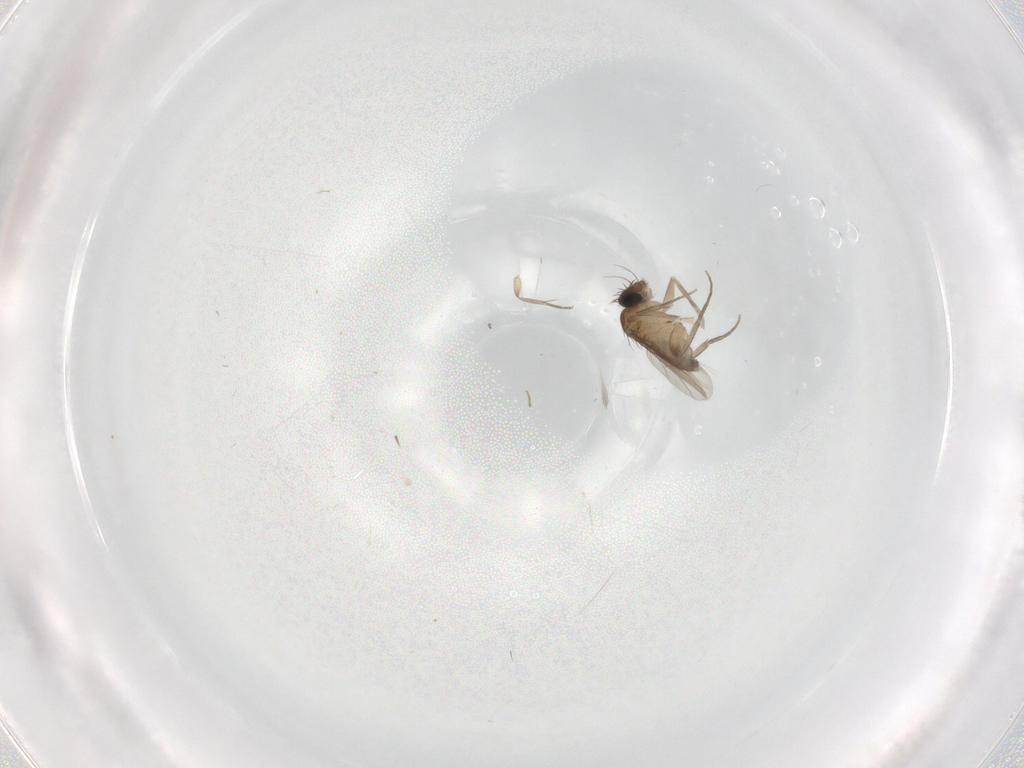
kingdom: Animalia
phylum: Arthropoda
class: Insecta
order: Diptera
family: Phoridae
